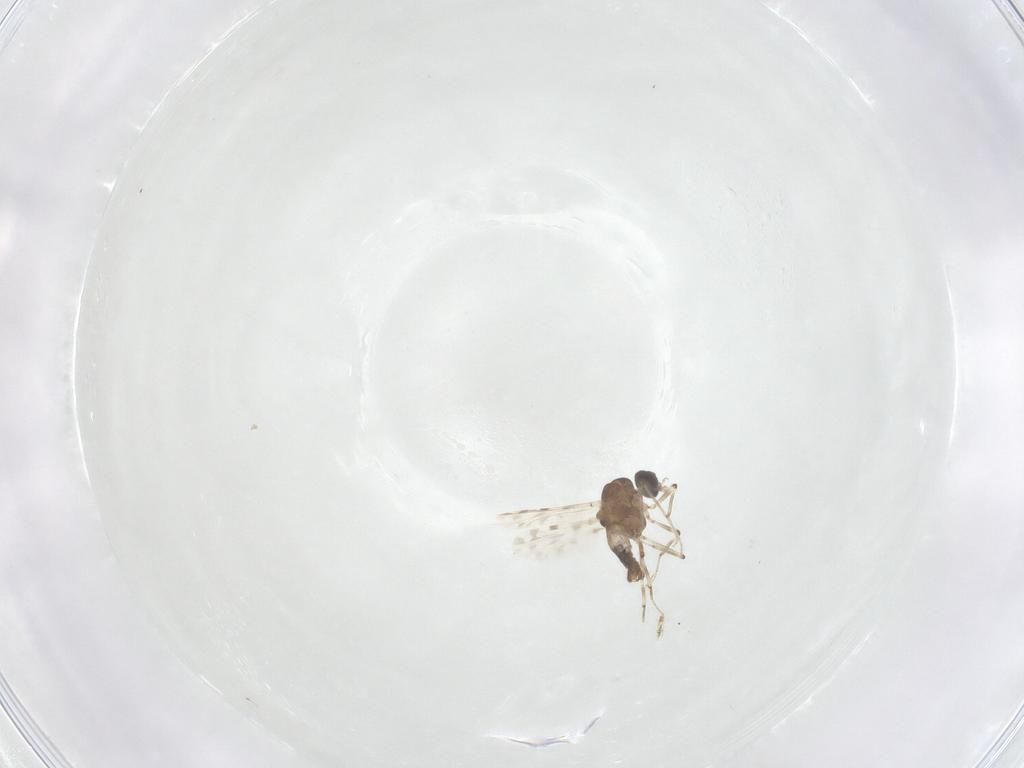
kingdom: Animalia
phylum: Arthropoda
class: Insecta
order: Diptera
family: Ceratopogonidae
